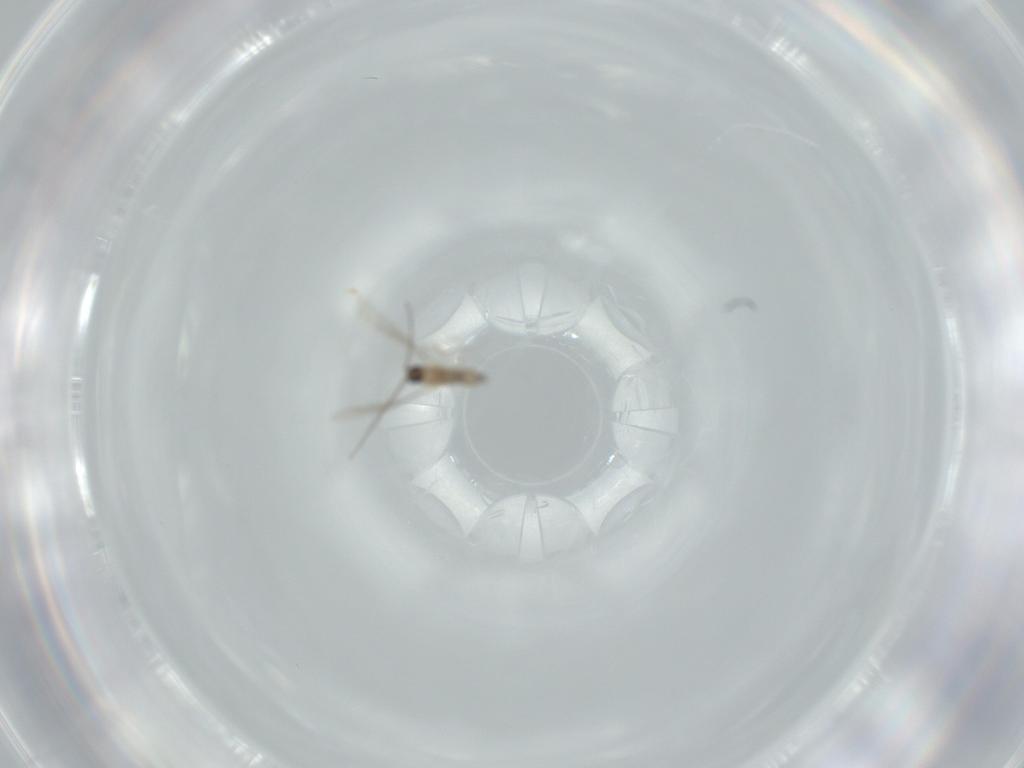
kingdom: Animalia
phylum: Arthropoda
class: Insecta
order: Diptera
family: Cecidomyiidae
